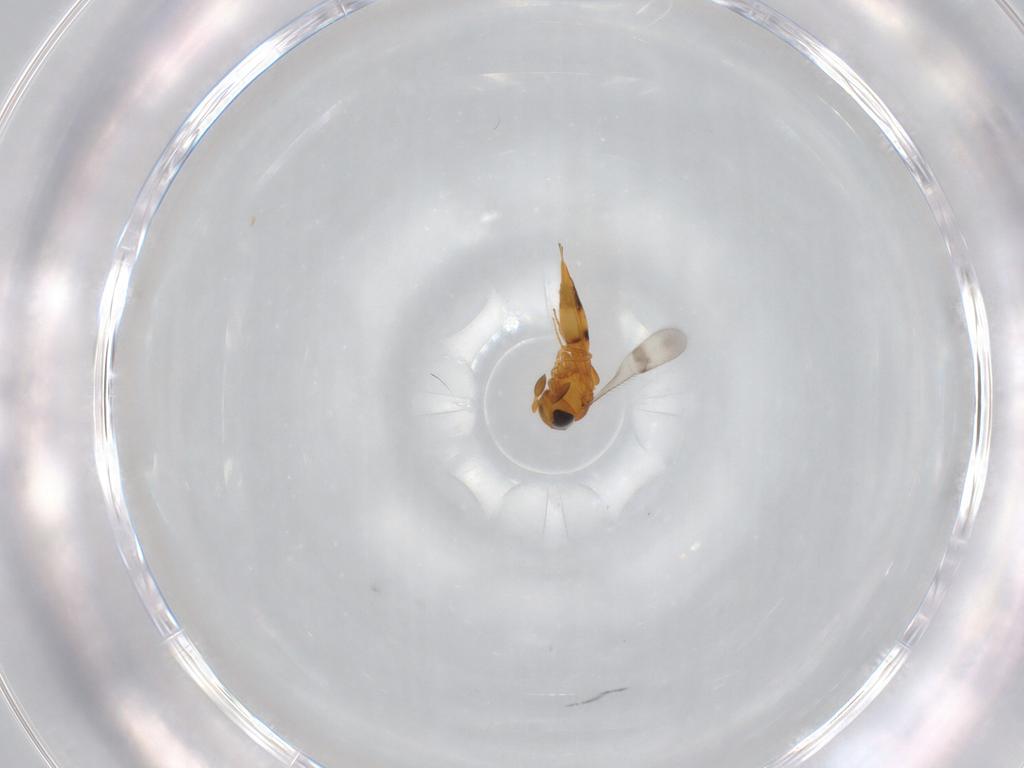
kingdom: Animalia
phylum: Arthropoda
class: Insecta
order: Hymenoptera
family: Scelionidae
